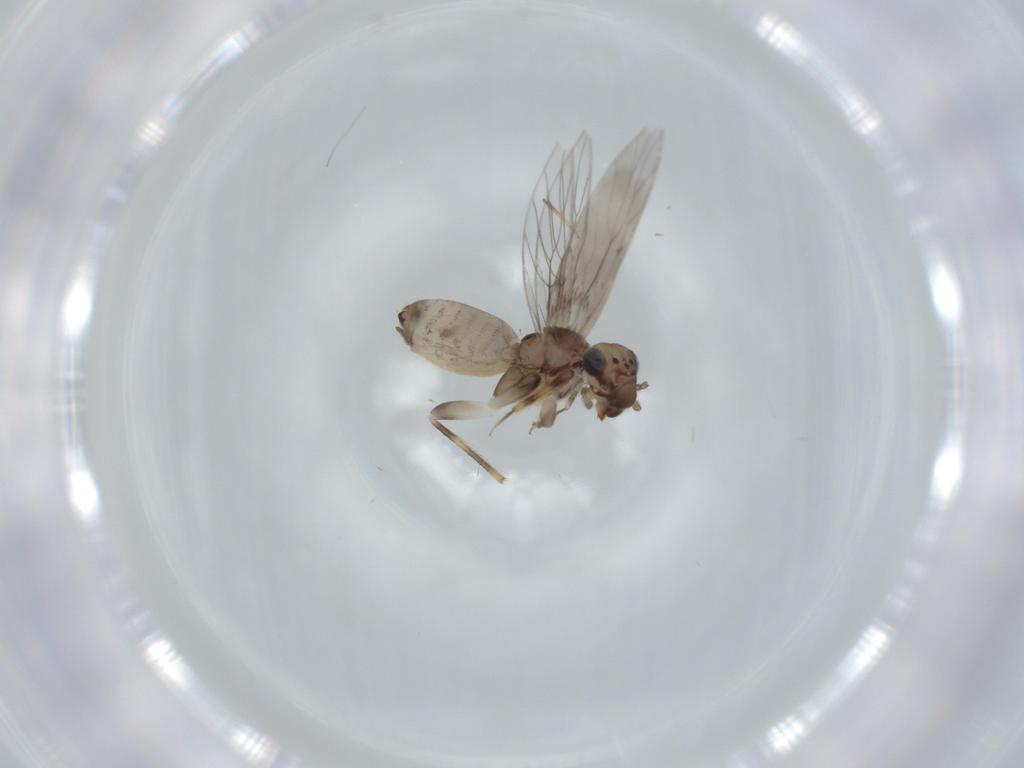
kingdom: Animalia
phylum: Arthropoda
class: Insecta
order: Psocodea
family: Lepidopsocidae
